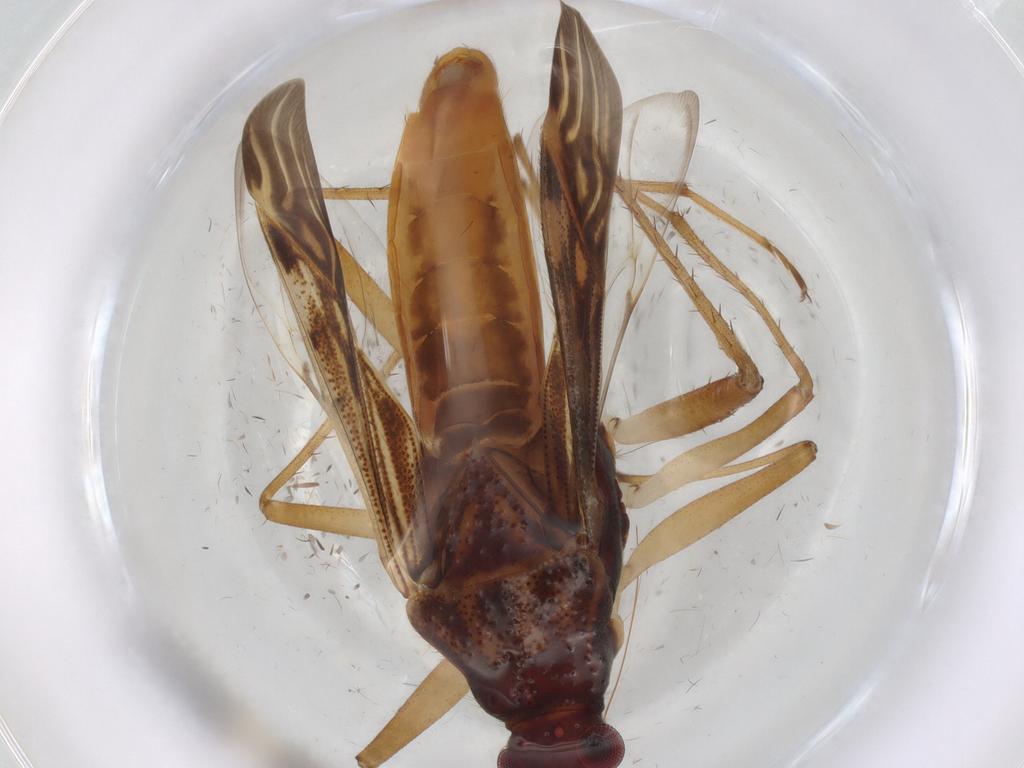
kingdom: Animalia
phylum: Arthropoda
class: Insecta
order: Hemiptera
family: Rhyparochromidae
